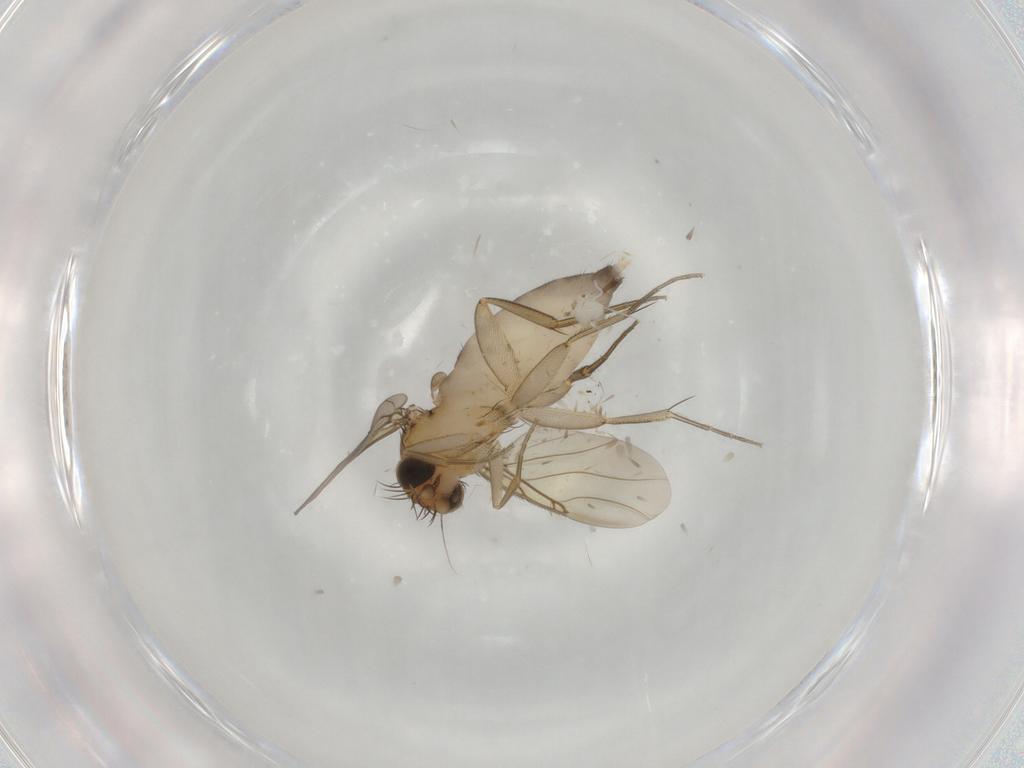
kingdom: Animalia
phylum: Arthropoda
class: Insecta
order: Diptera
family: Phoridae
